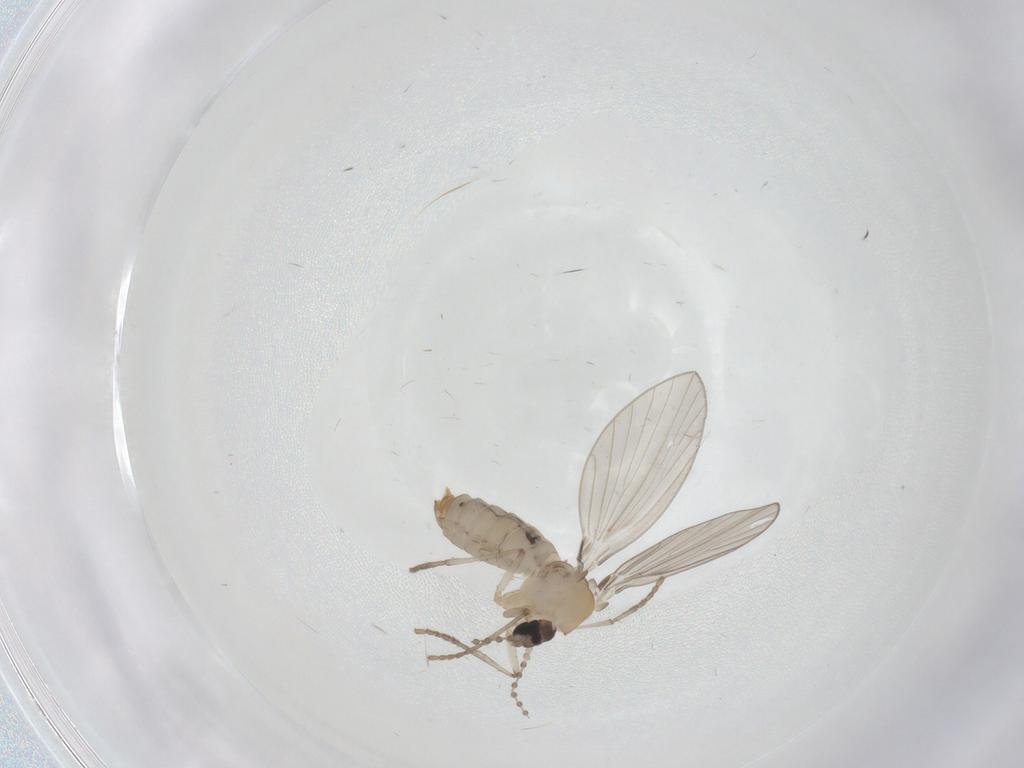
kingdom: Animalia
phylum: Arthropoda
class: Insecta
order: Diptera
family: Psychodidae
